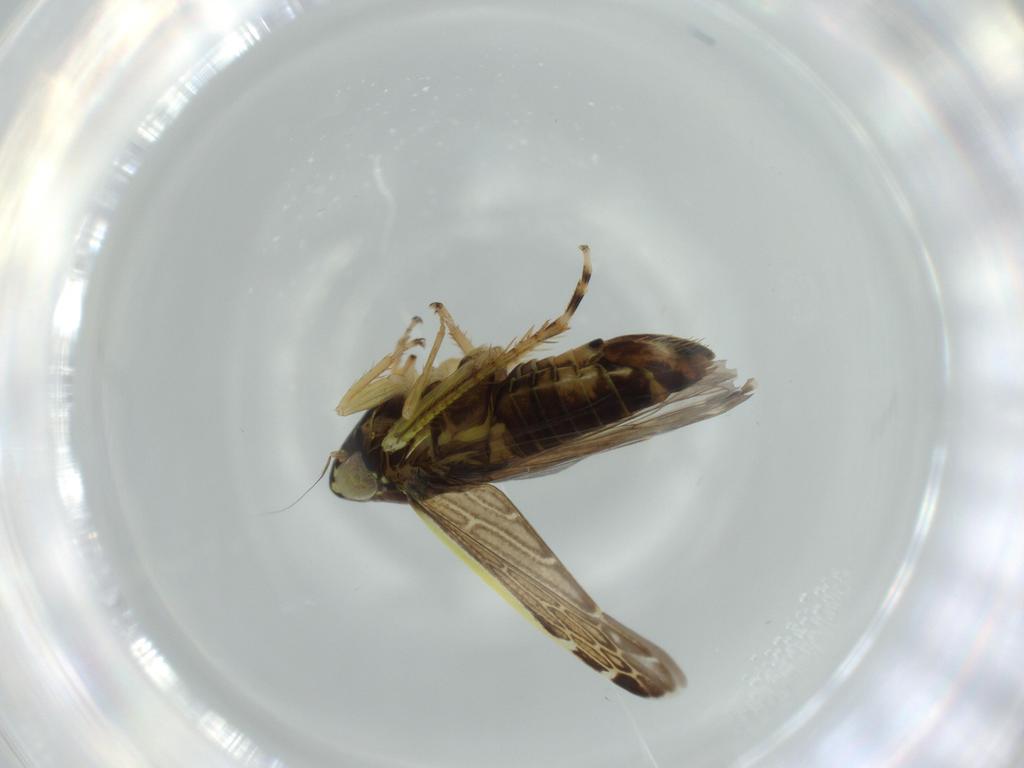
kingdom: Animalia
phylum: Arthropoda
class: Insecta
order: Hemiptera
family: Cicadellidae
